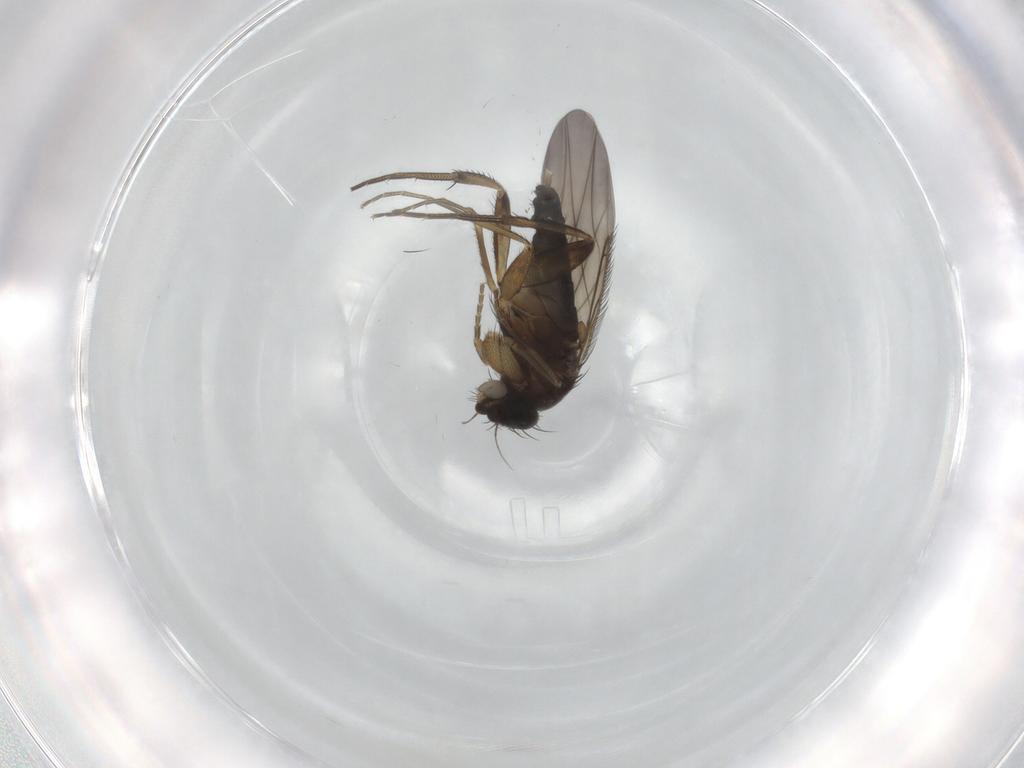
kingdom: Animalia
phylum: Arthropoda
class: Insecta
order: Diptera
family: Phoridae
